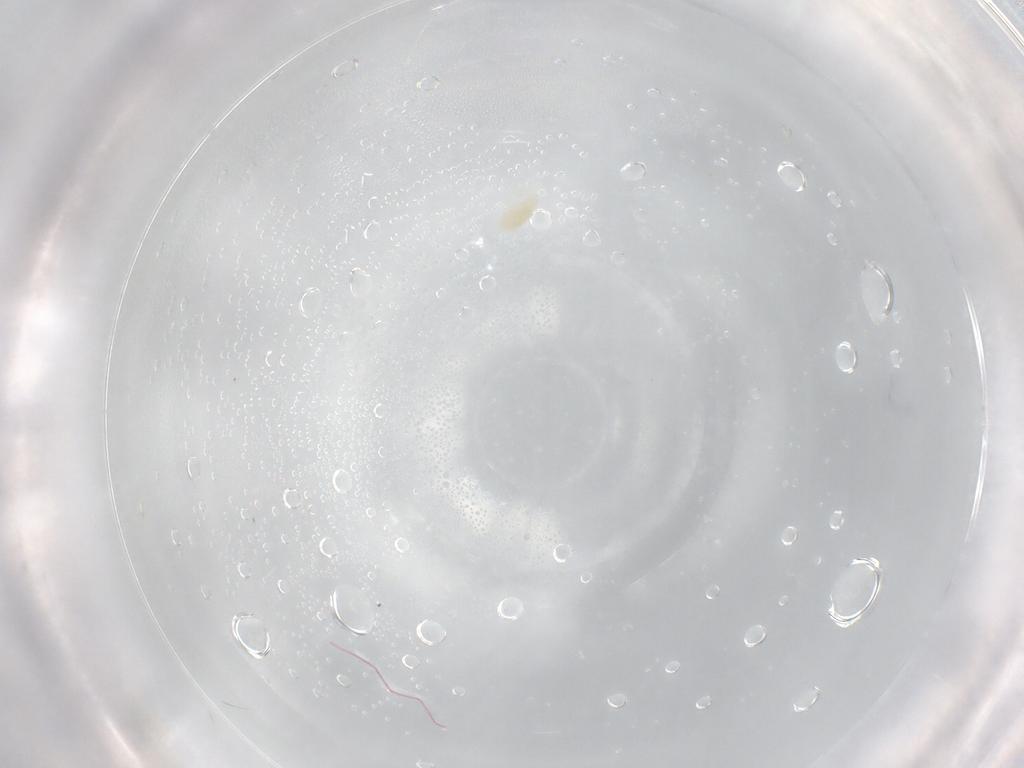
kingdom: Animalia
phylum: Arthropoda
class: Arachnida
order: Trombidiformes
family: Eupodidae
